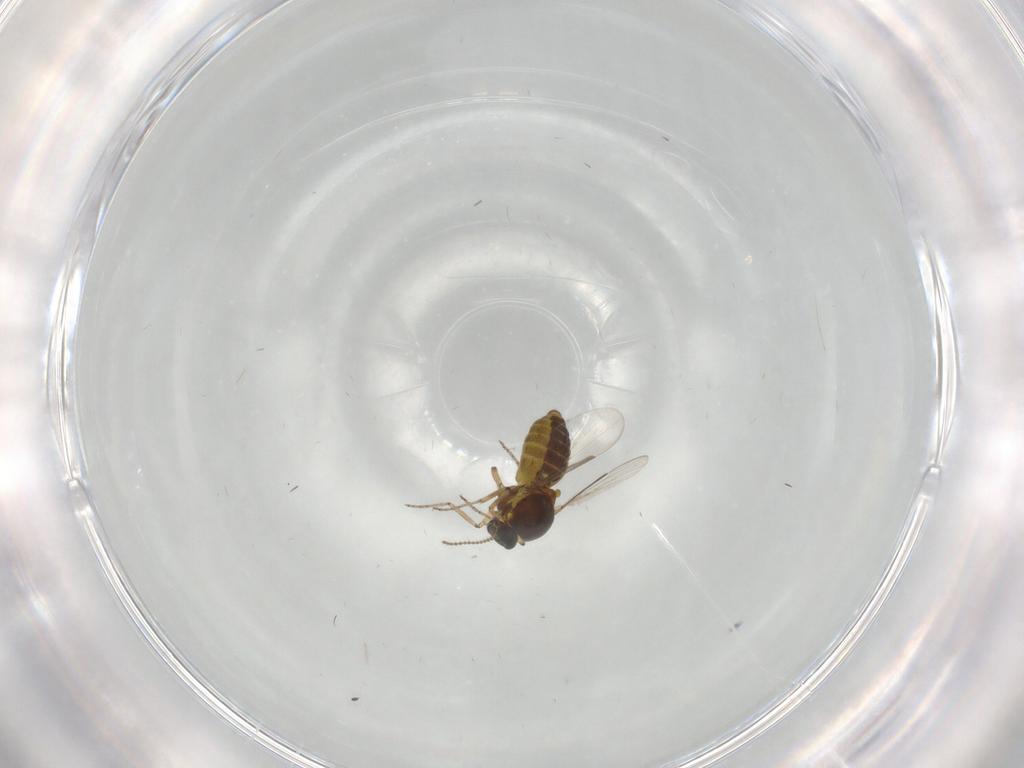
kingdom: Animalia
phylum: Arthropoda
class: Insecta
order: Diptera
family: Ceratopogonidae
